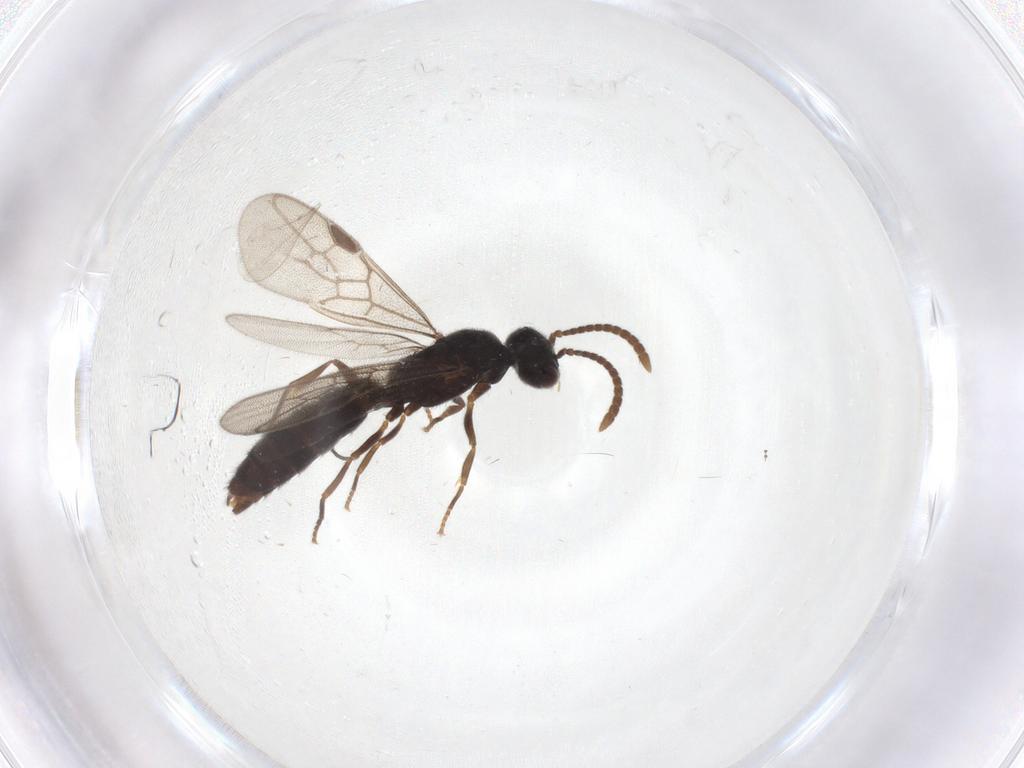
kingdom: Animalia
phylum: Arthropoda
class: Insecta
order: Hymenoptera
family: Formicidae
